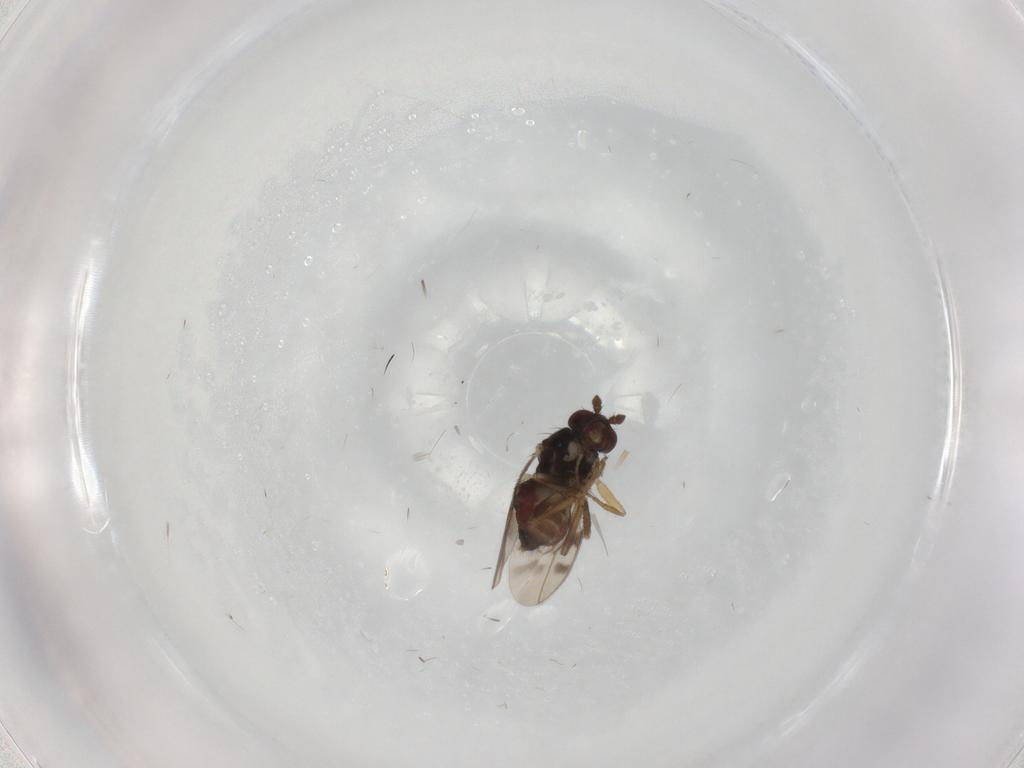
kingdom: Animalia
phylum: Arthropoda
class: Insecta
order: Diptera
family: Sphaeroceridae
